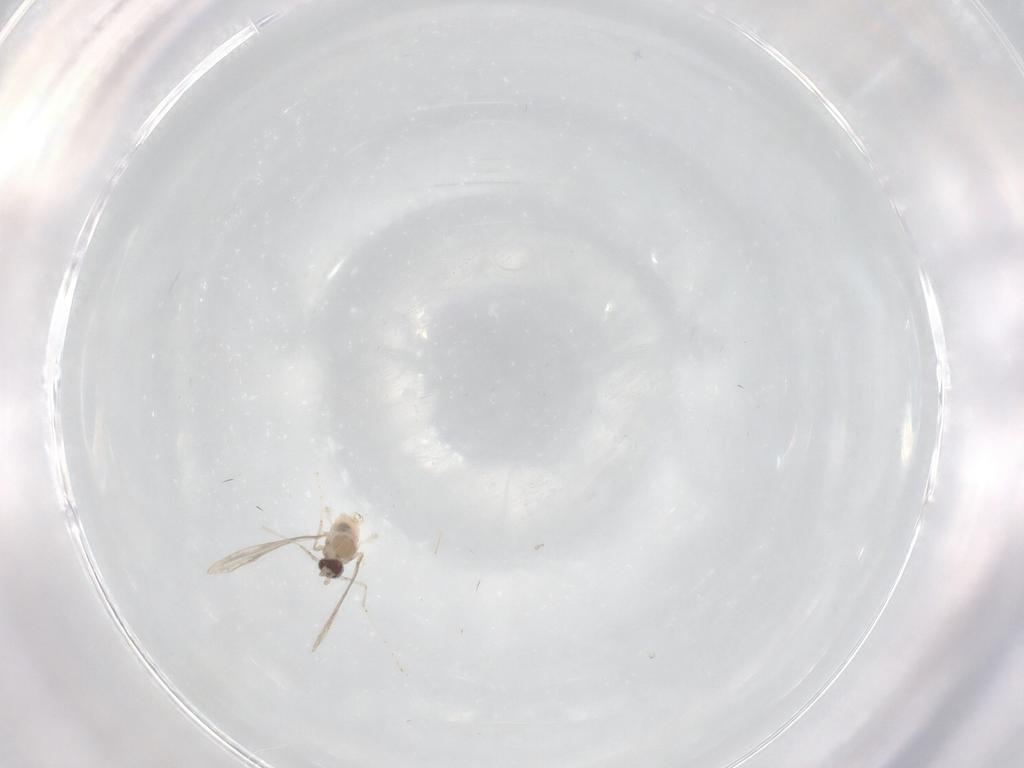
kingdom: Animalia
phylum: Arthropoda
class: Insecta
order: Diptera
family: Cecidomyiidae
